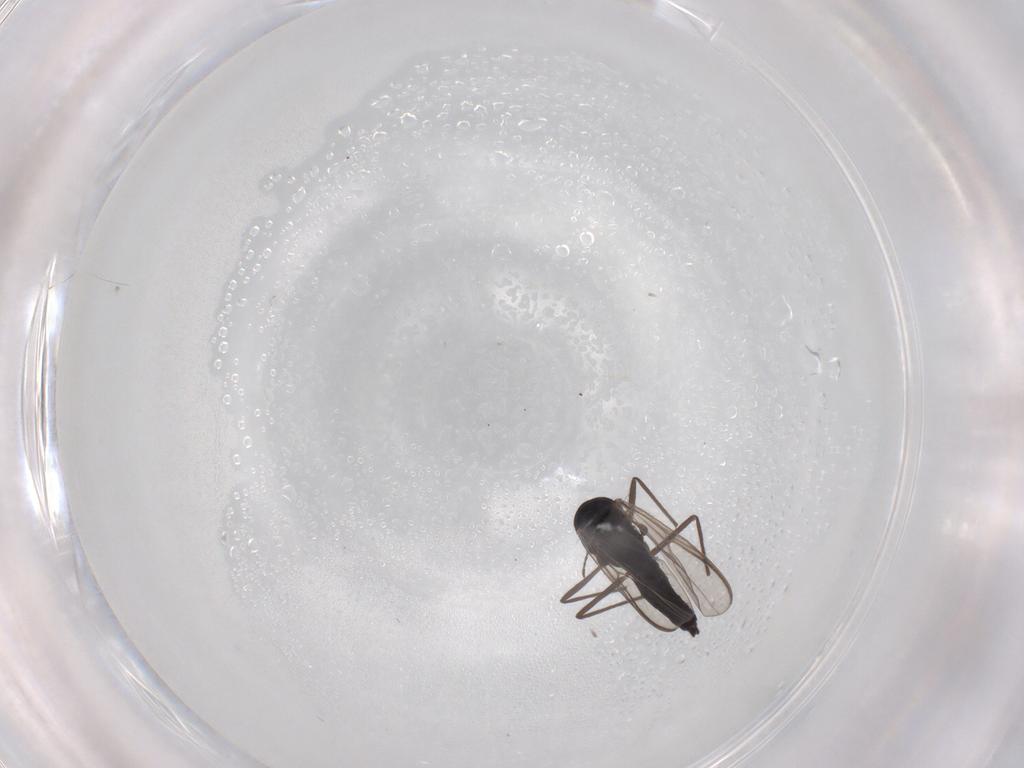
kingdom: Animalia
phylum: Arthropoda
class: Insecta
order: Diptera
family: Chironomidae
